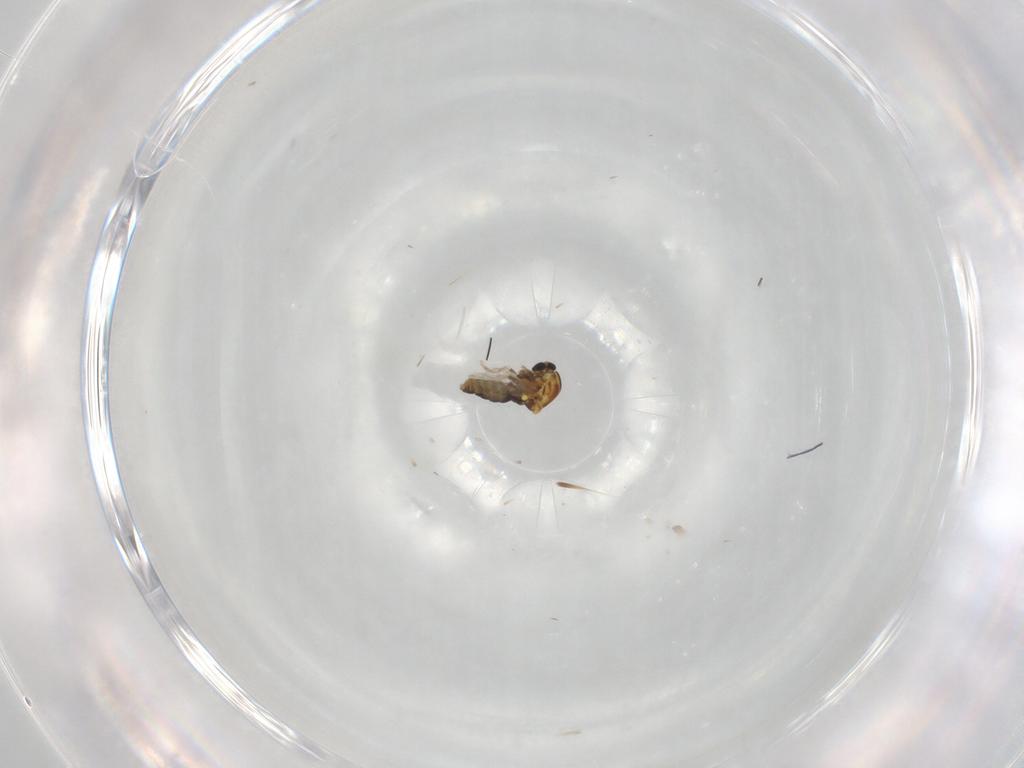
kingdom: Animalia
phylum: Arthropoda
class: Insecta
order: Diptera
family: Ceratopogonidae
